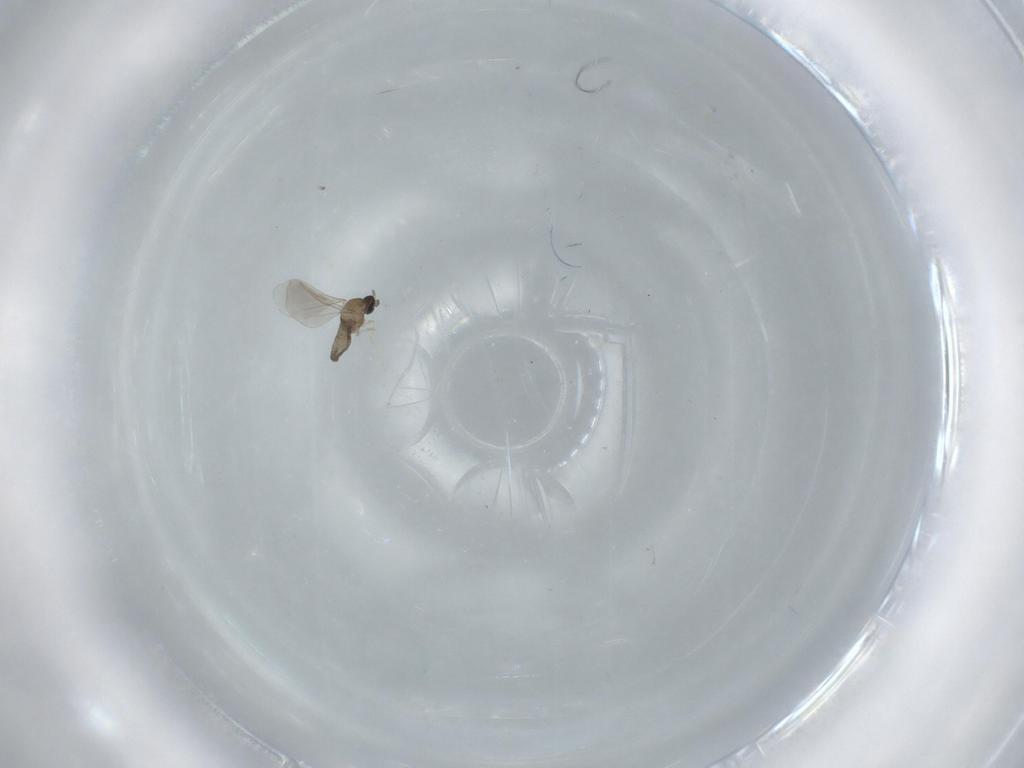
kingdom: Animalia
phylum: Arthropoda
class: Insecta
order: Diptera
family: Cecidomyiidae
